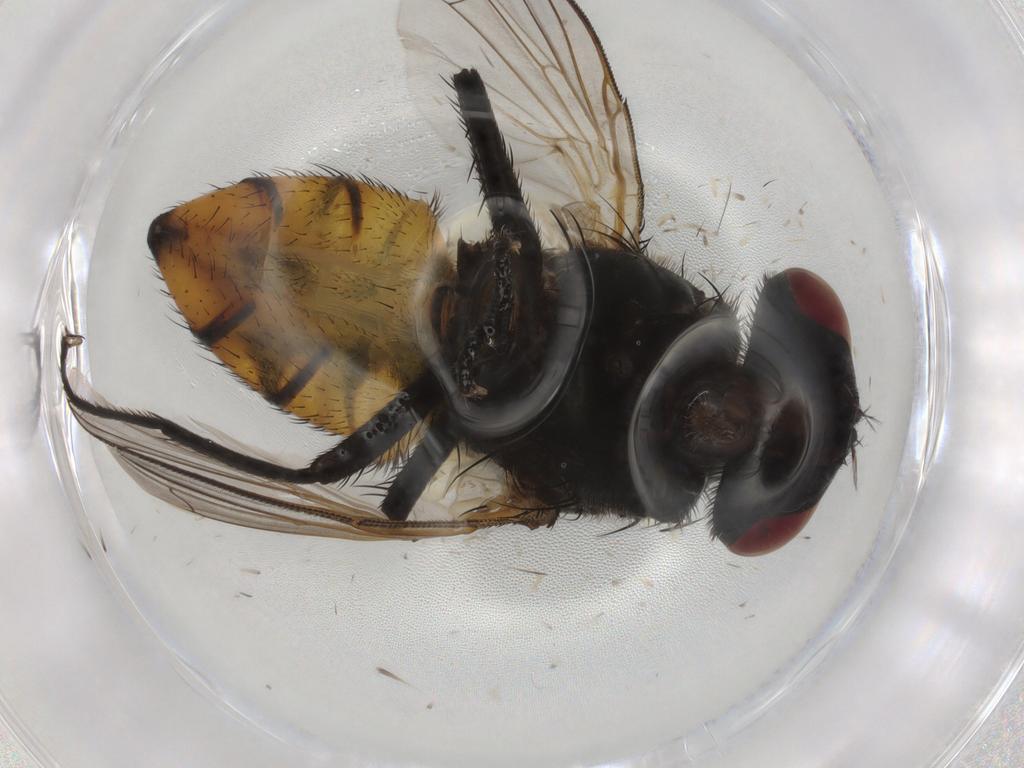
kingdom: Animalia
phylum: Arthropoda
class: Insecta
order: Diptera
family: Muscidae
